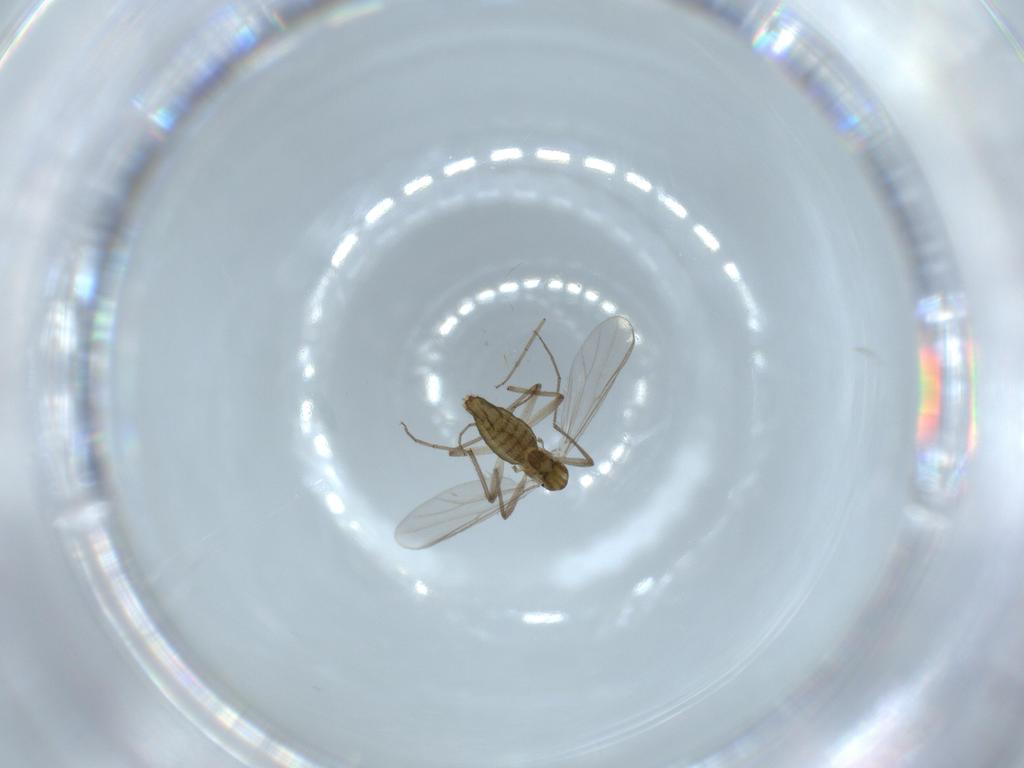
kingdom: Animalia
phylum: Arthropoda
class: Insecta
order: Diptera
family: Chironomidae
